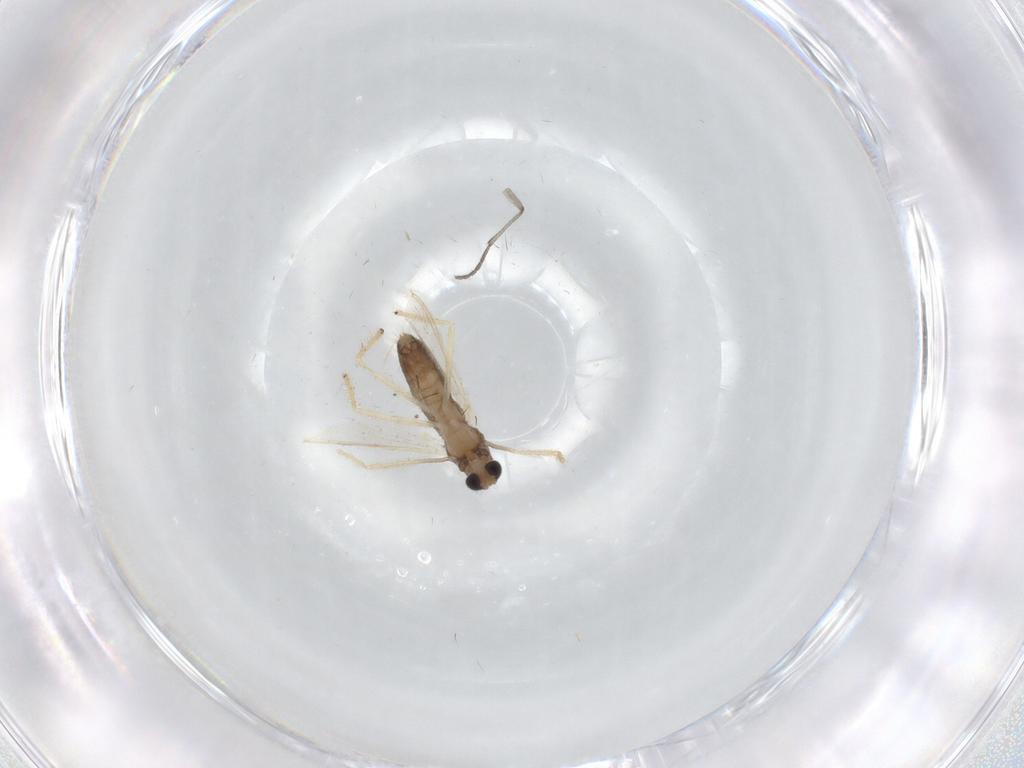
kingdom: Animalia
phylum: Arthropoda
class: Insecta
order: Diptera
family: Chironomidae
